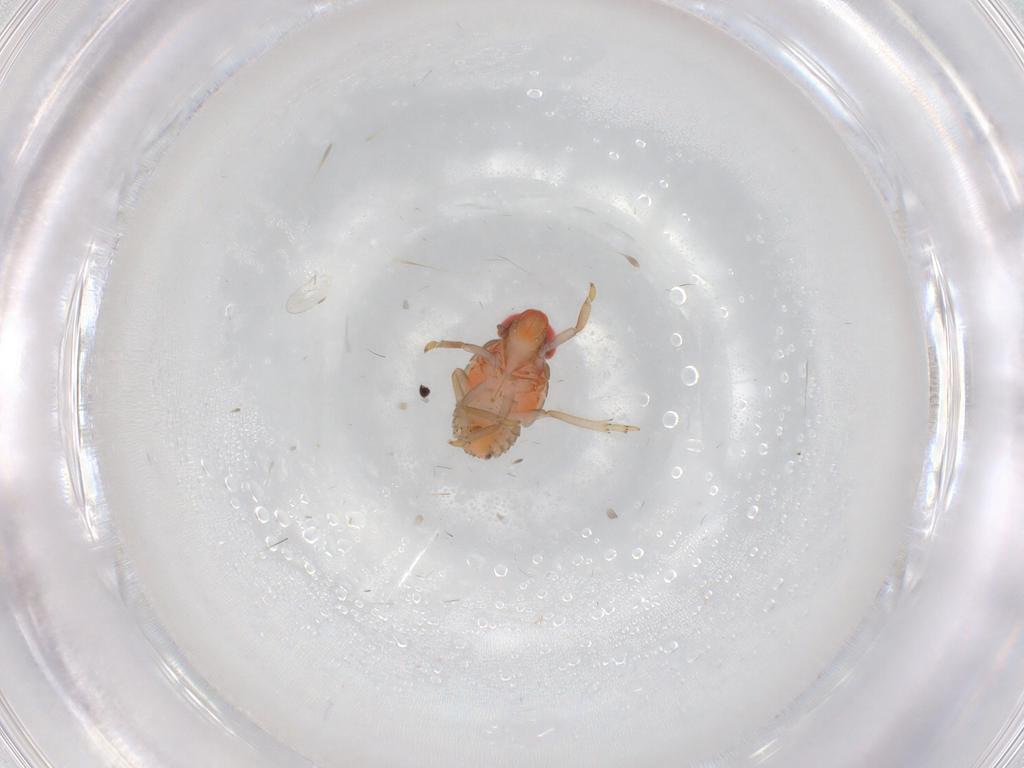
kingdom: Animalia
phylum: Arthropoda
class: Insecta
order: Hemiptera
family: Issidae
